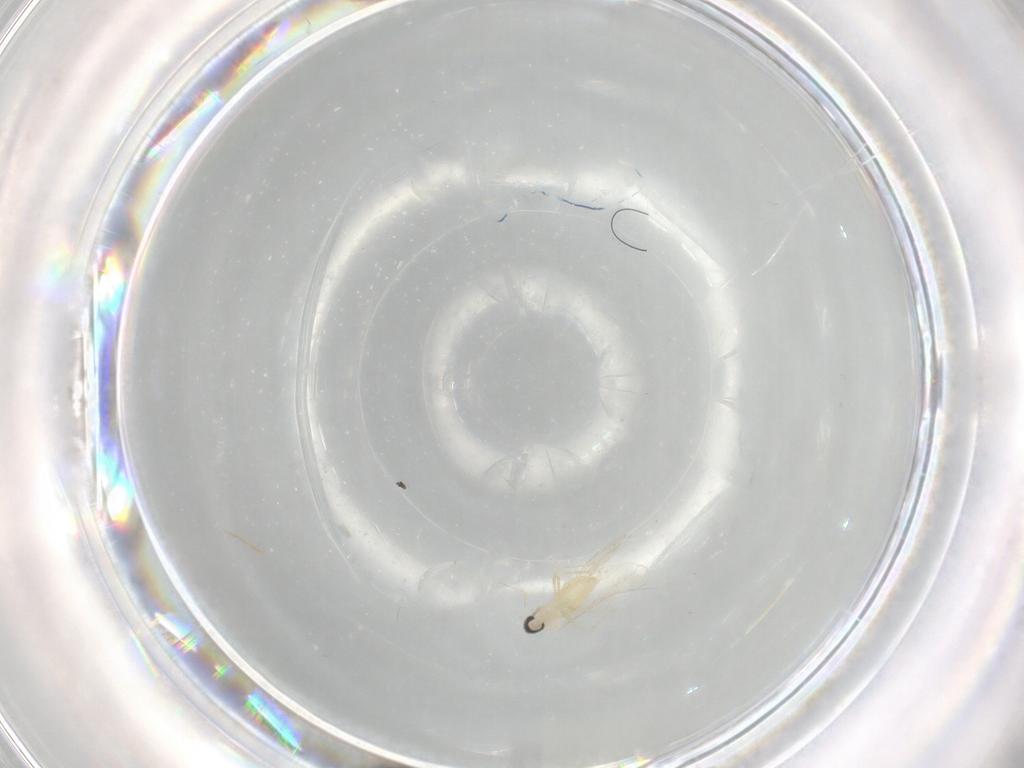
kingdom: Animalia
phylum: Arthropoda
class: Insecta
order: Diptera
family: Cecidomyiidae
